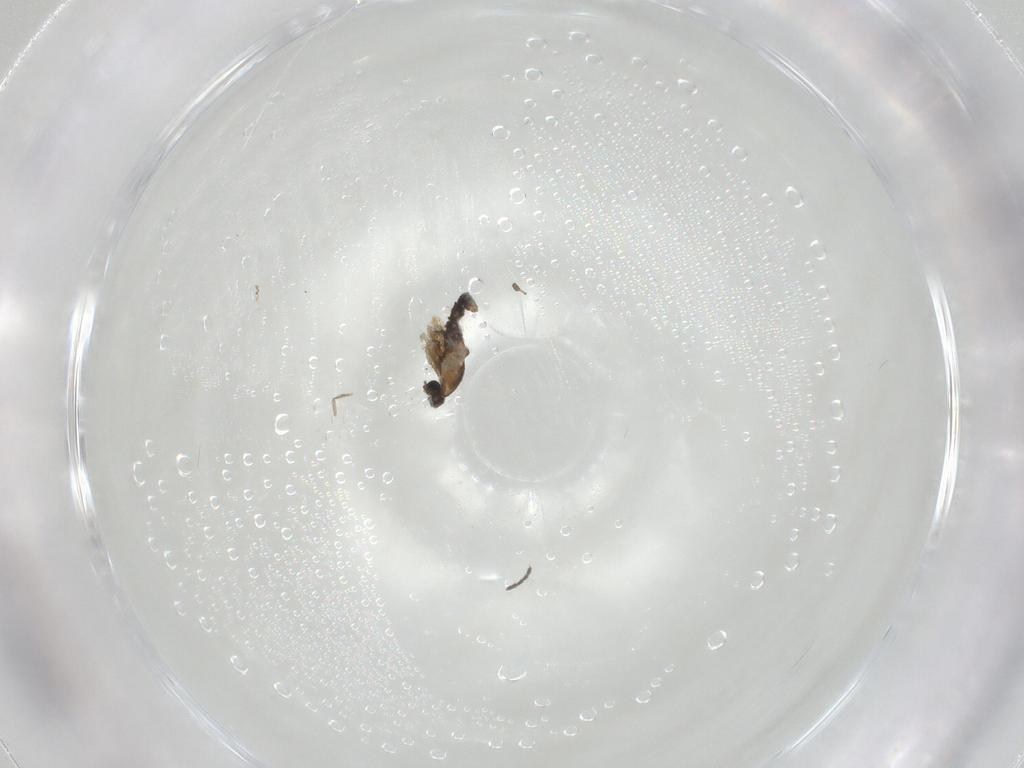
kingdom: Animalia
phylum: Arthropoda
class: Insecta
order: Diptera
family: Sciaridae
